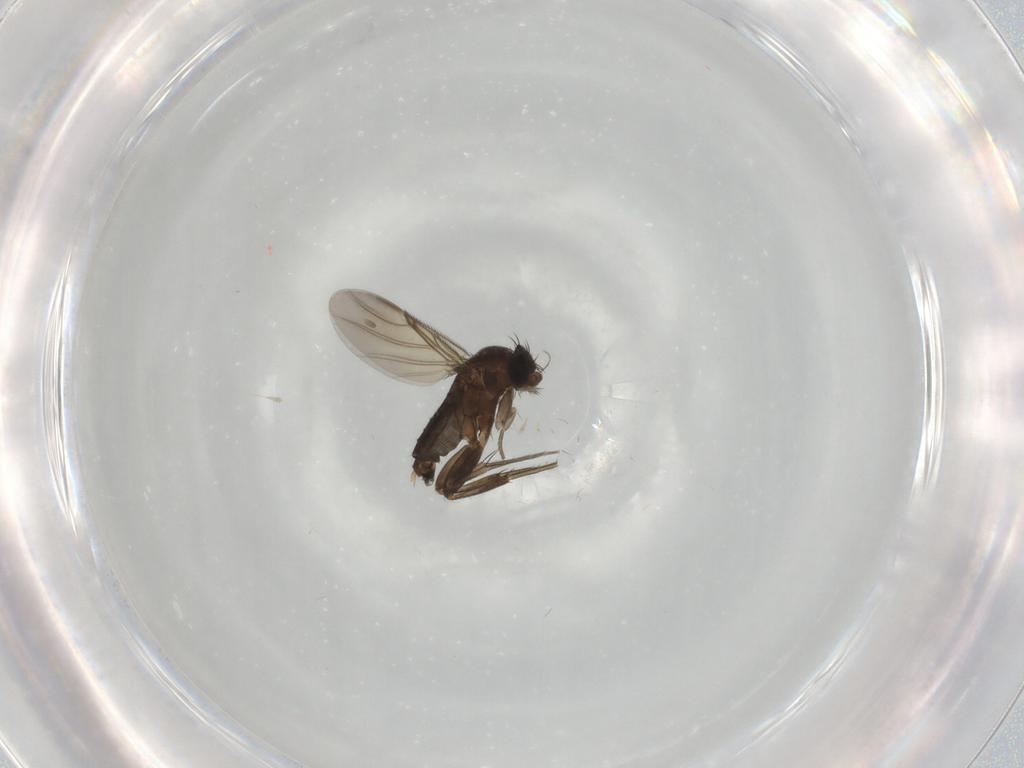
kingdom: Animalia
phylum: Arthropoda
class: Insecta
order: Diptera
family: Phoridae
